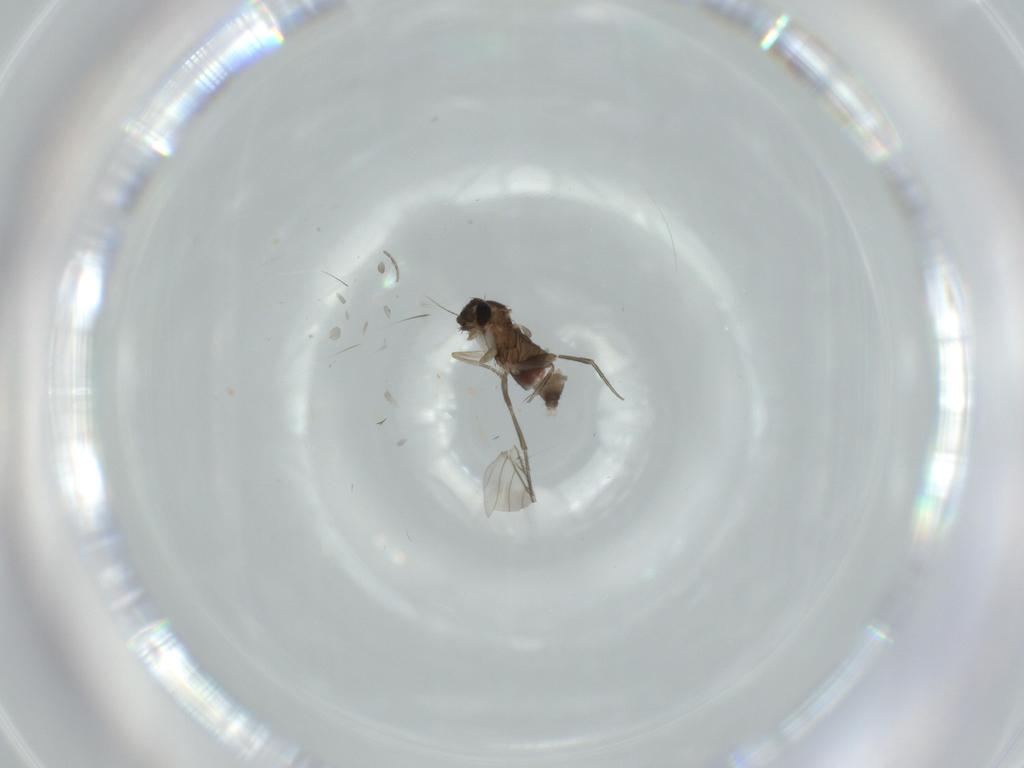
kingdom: Animalia
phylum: Arthropoda
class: Insecta
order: Diptera
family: Phoridae
